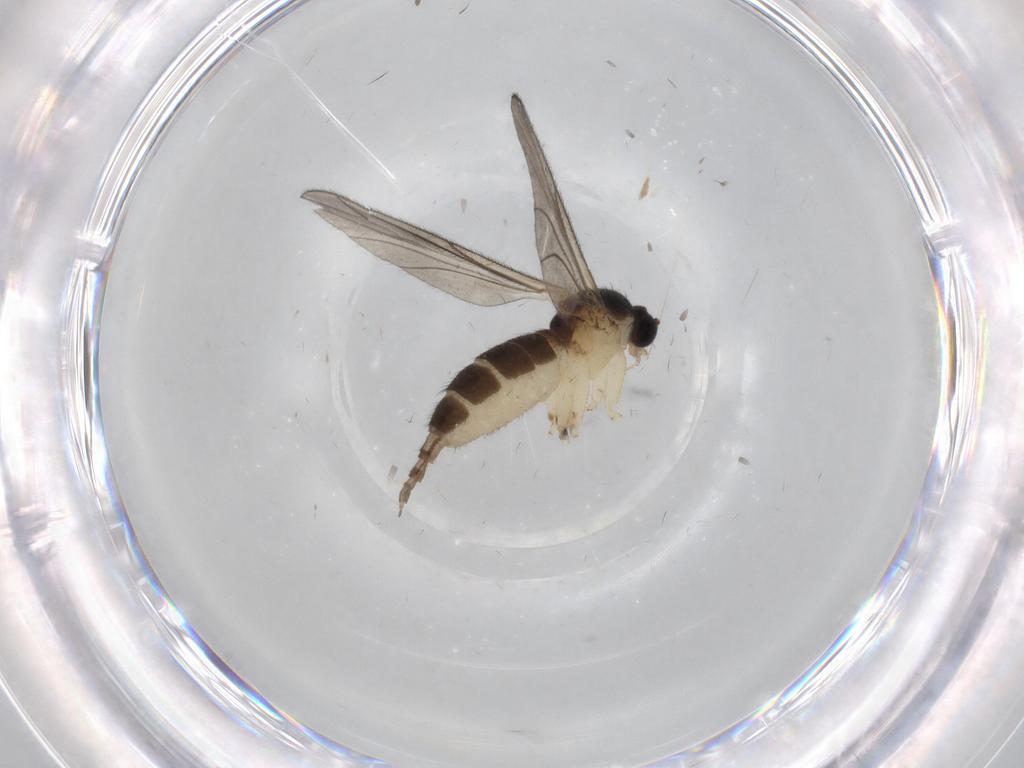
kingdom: Animalia
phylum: Arthropoda
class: Insecta
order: Diptera
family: Sciaridae
